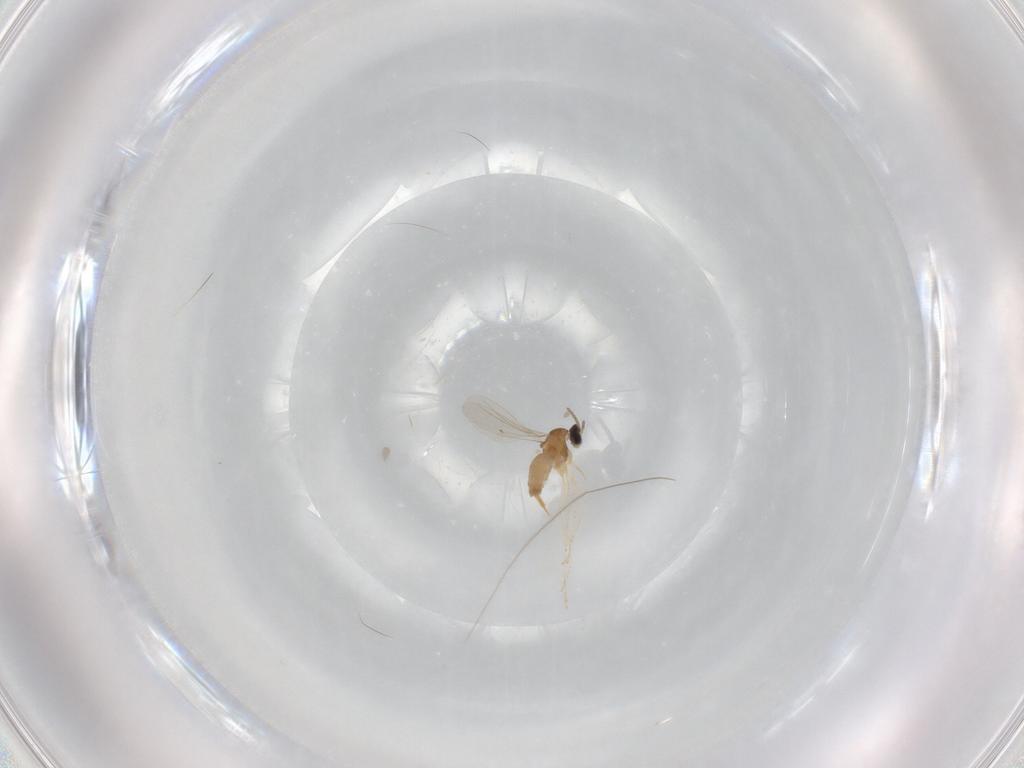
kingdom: Animalia
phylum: Arthropoda
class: Insecta
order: Diptera
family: Cecidomyiidae
